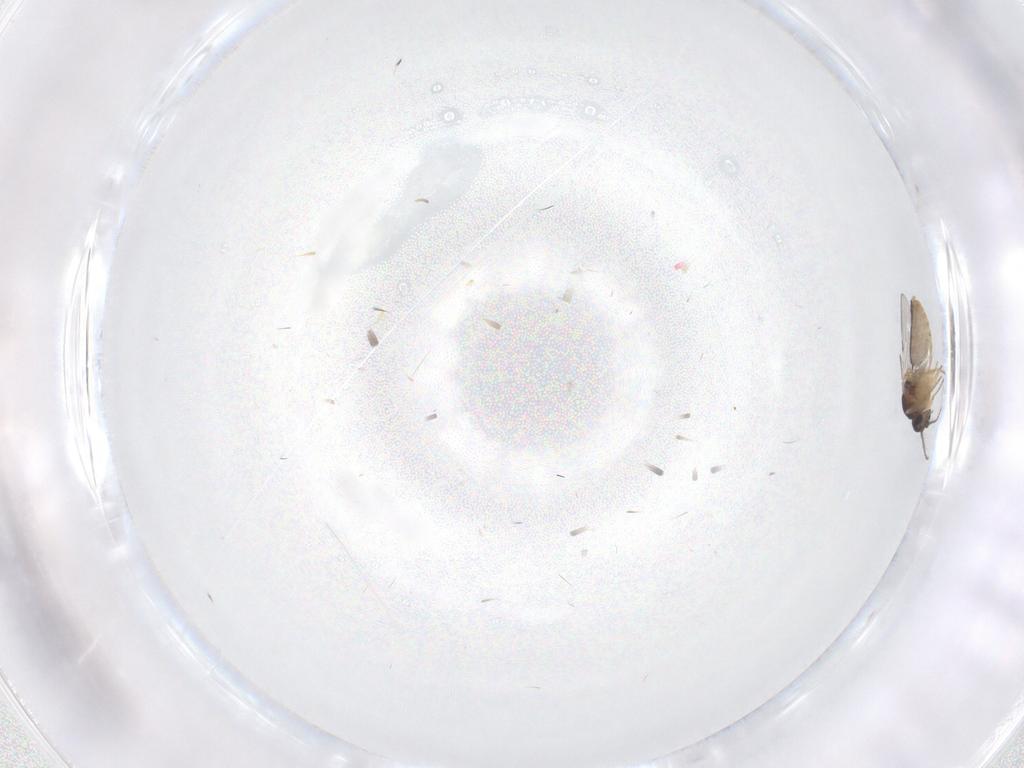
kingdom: Animalia
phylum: Arthropoda
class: Insecta
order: Diptera
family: Ceratopogonidae
